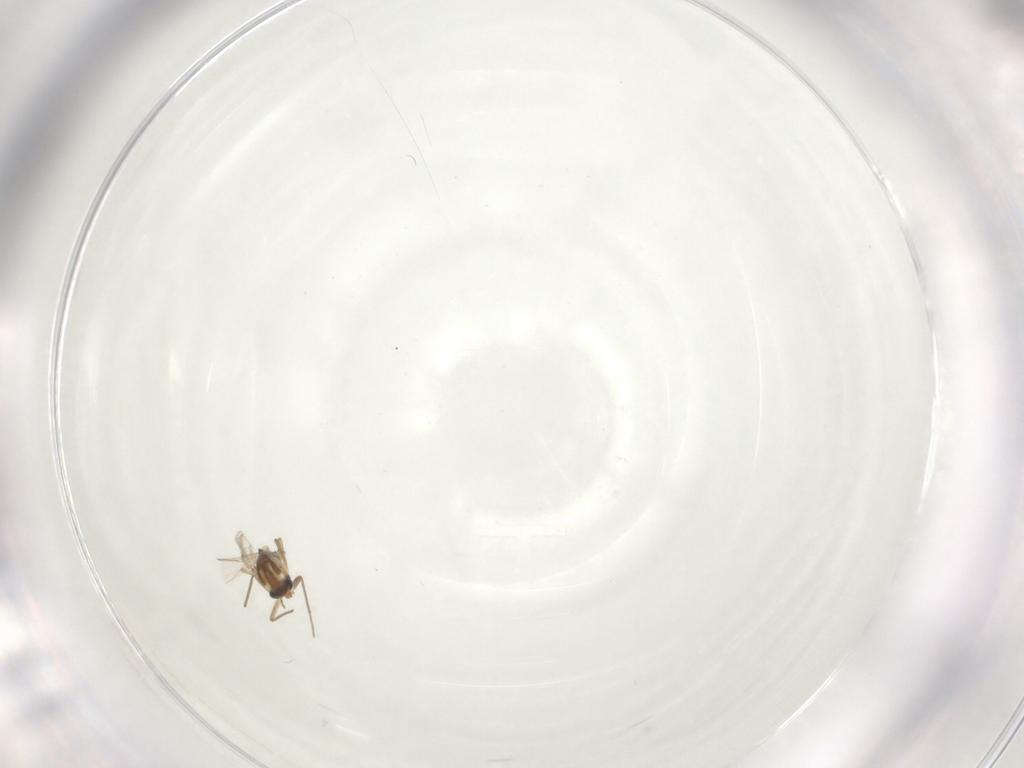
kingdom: Animalia
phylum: Arthropoda
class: Insecta
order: Diptera
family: Chironomidae
